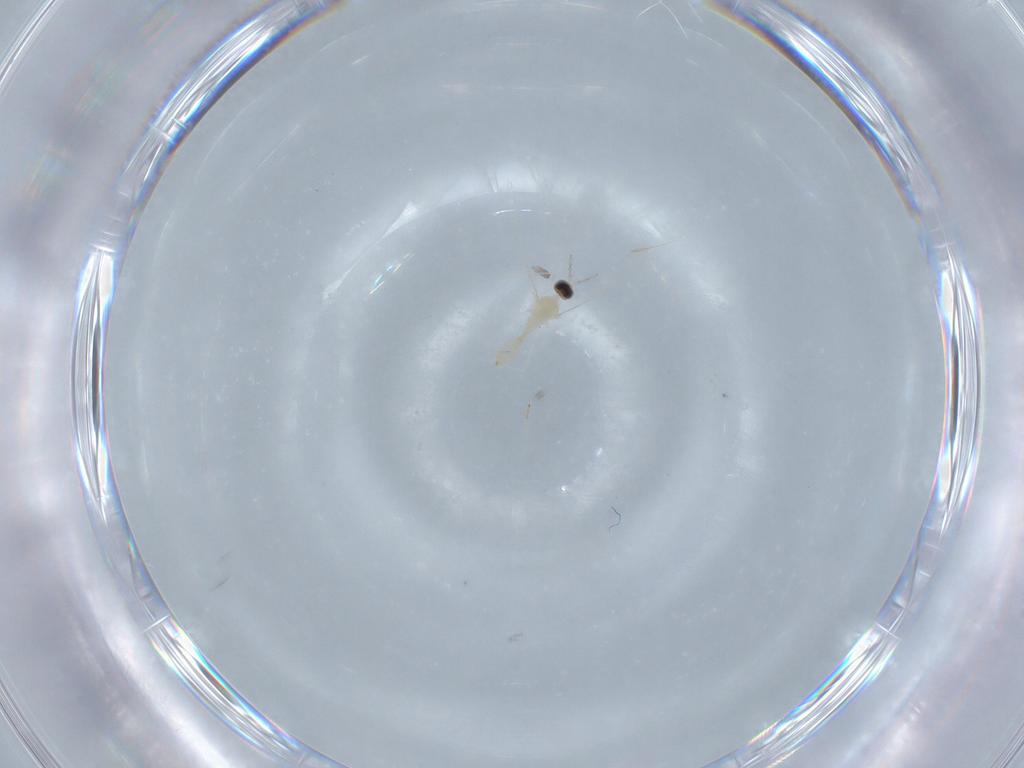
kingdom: Animalia
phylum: Arthropoda
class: Insecta
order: Diptera
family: Cecidomyiidae
